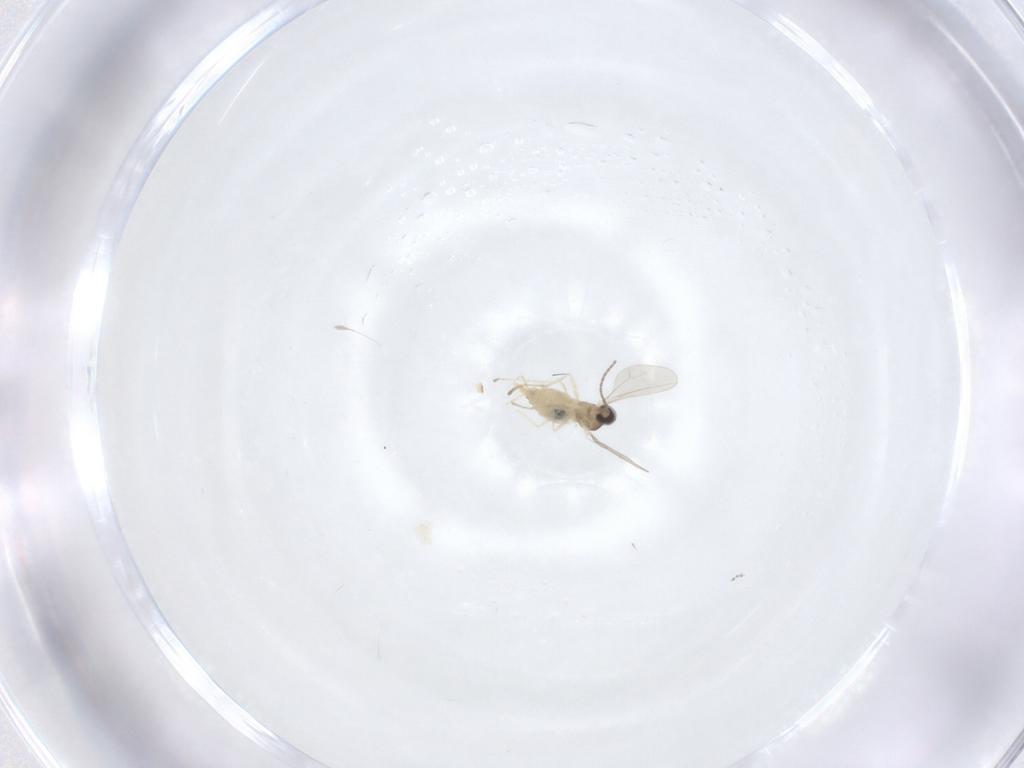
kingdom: Animalia
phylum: Arthropoda
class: Insecta
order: Diptera
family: Cecidomyiidae
